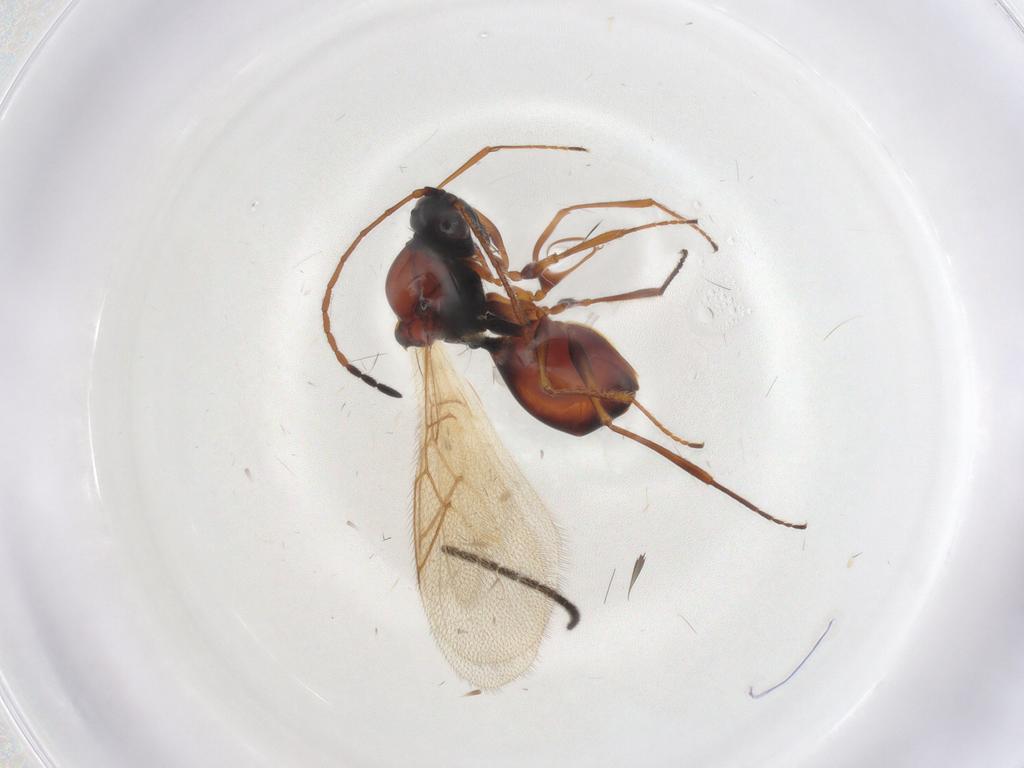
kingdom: Animalia
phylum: Arthropoda
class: Insecta
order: Hymenoptera
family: Figitidae
